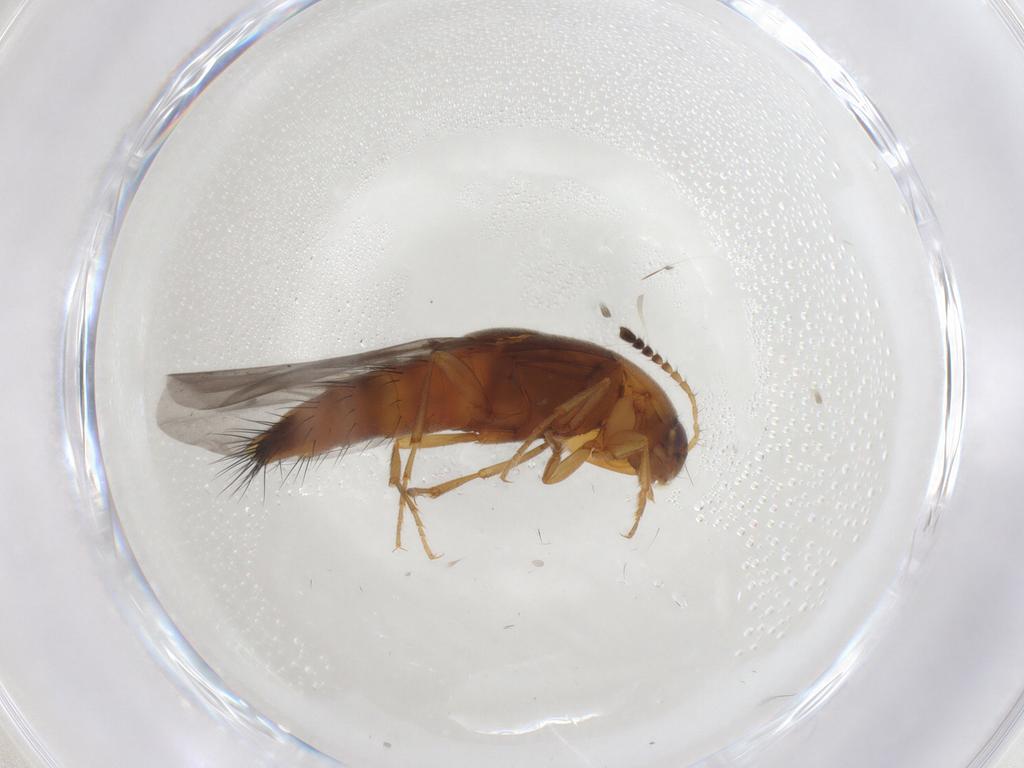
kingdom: Animalia
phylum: Arthropoda
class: Insecta
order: Coleoptera
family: Staphylinidae
